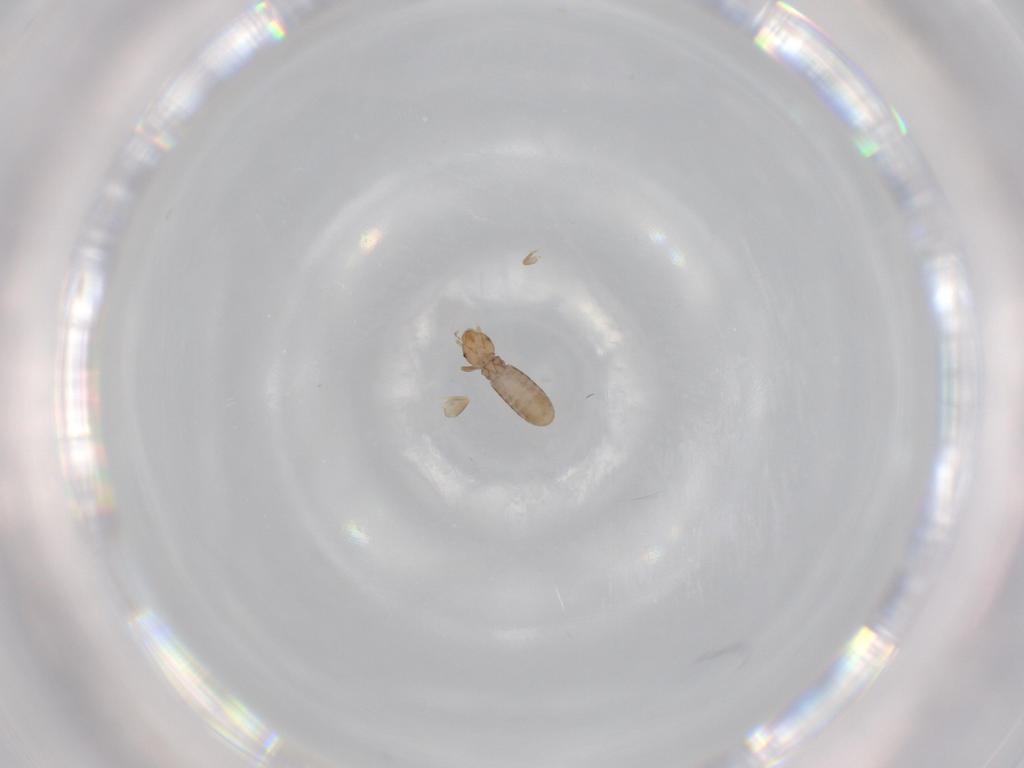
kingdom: Animalia
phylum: Arthropoda
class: Insecta
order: Psocodea
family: Liposcelididae
